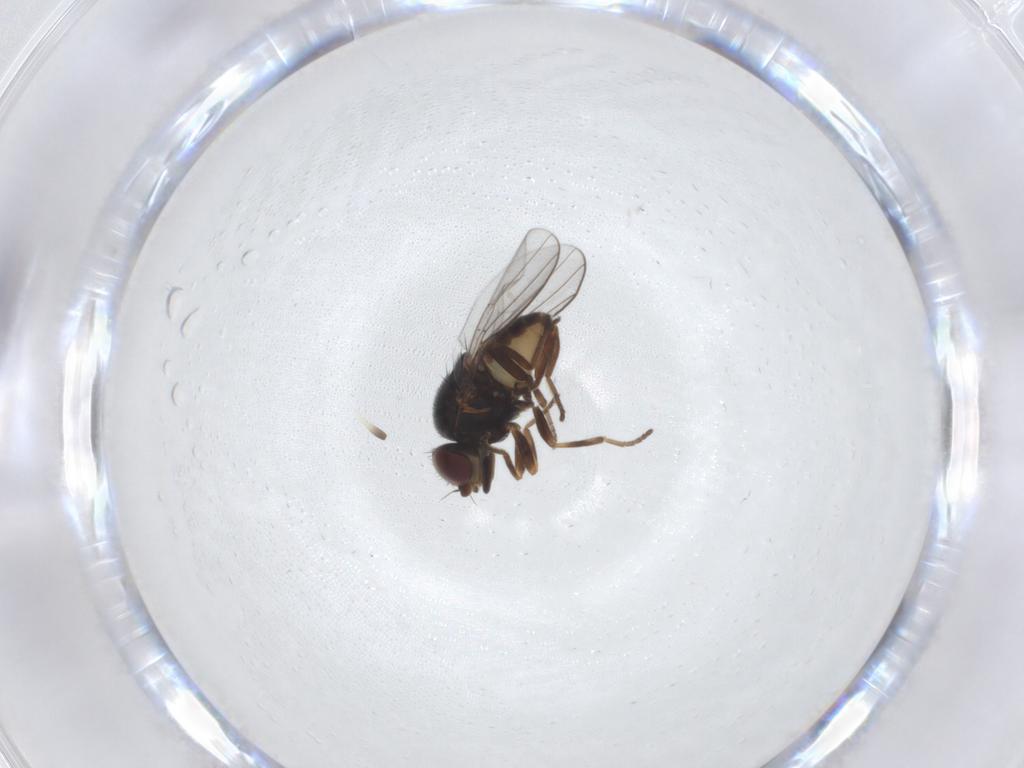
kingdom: Animalia
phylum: Arthropoda
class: Insecta
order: Diptera
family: Chloropidae
